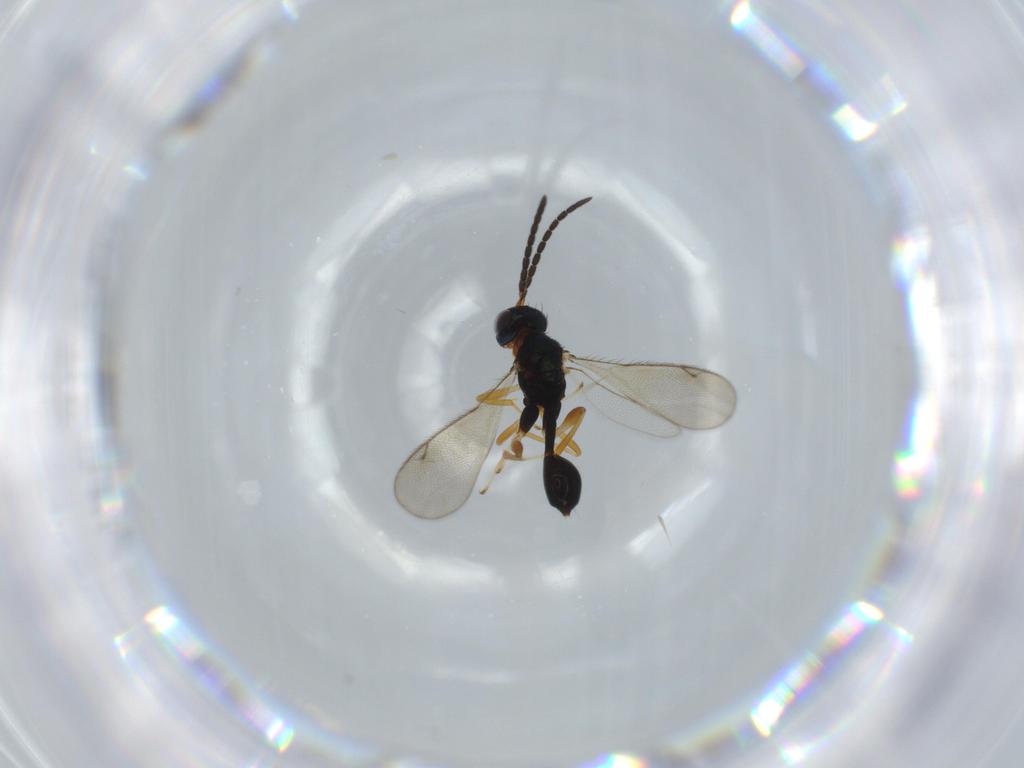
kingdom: Animalia
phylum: Arthropoda
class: Insecta
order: Hymenoptera
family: Diparidae
